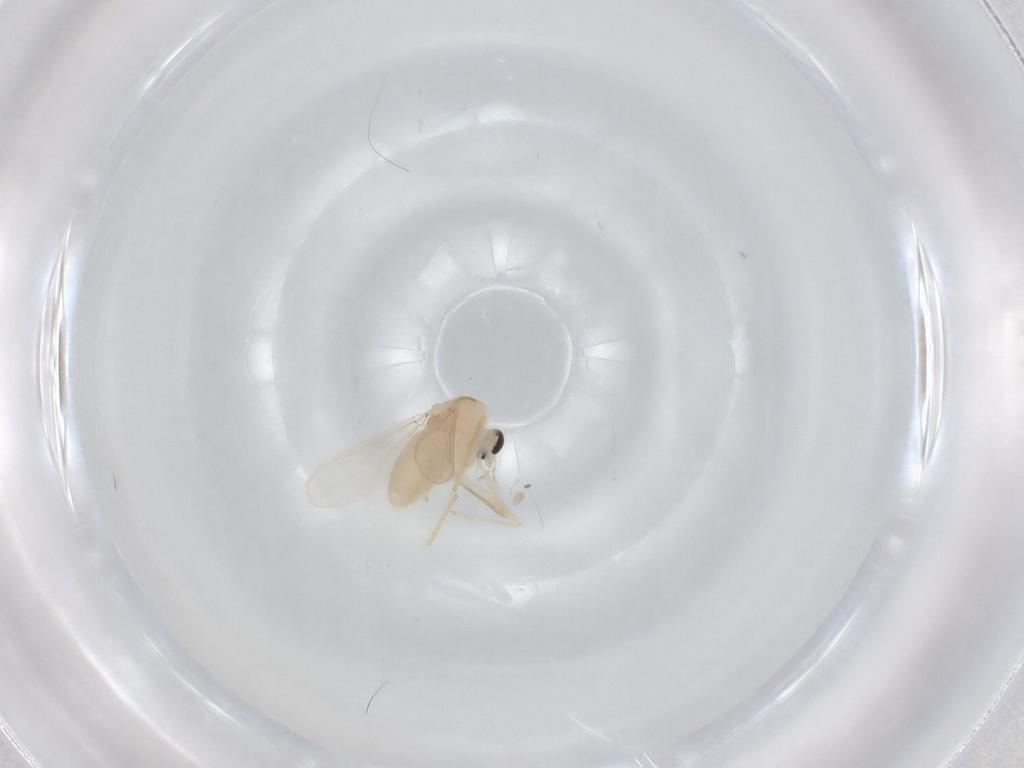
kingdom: Animalia
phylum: Arthropoda
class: Insecta
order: Diptera
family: Chironomidae
